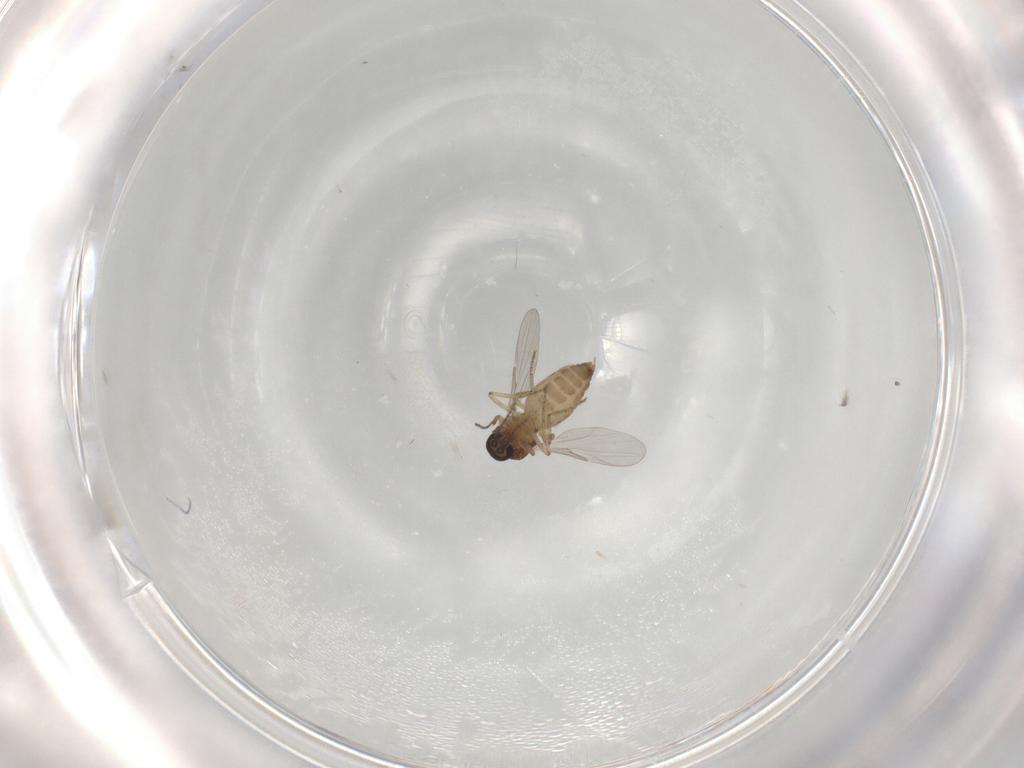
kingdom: Animalia
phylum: Arthropoda
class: Insecta
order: Diptera
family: Ceratopogonidae
